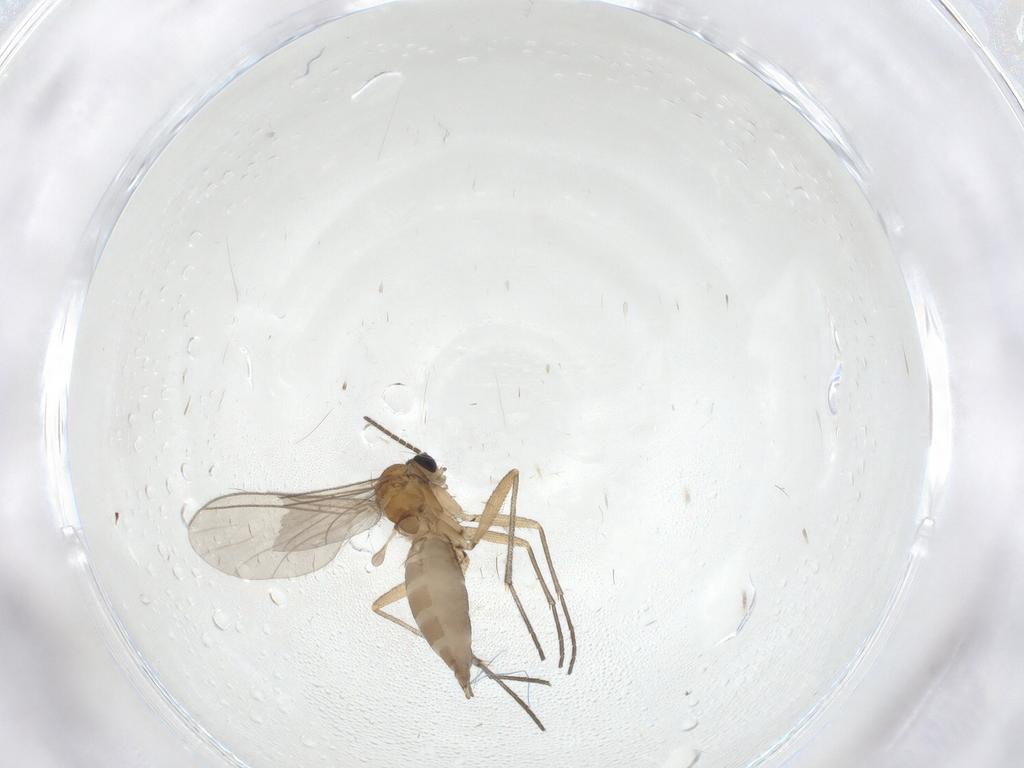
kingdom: Animalia
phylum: Arthropoda
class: Insecta
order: Diptera
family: Sciaridae
